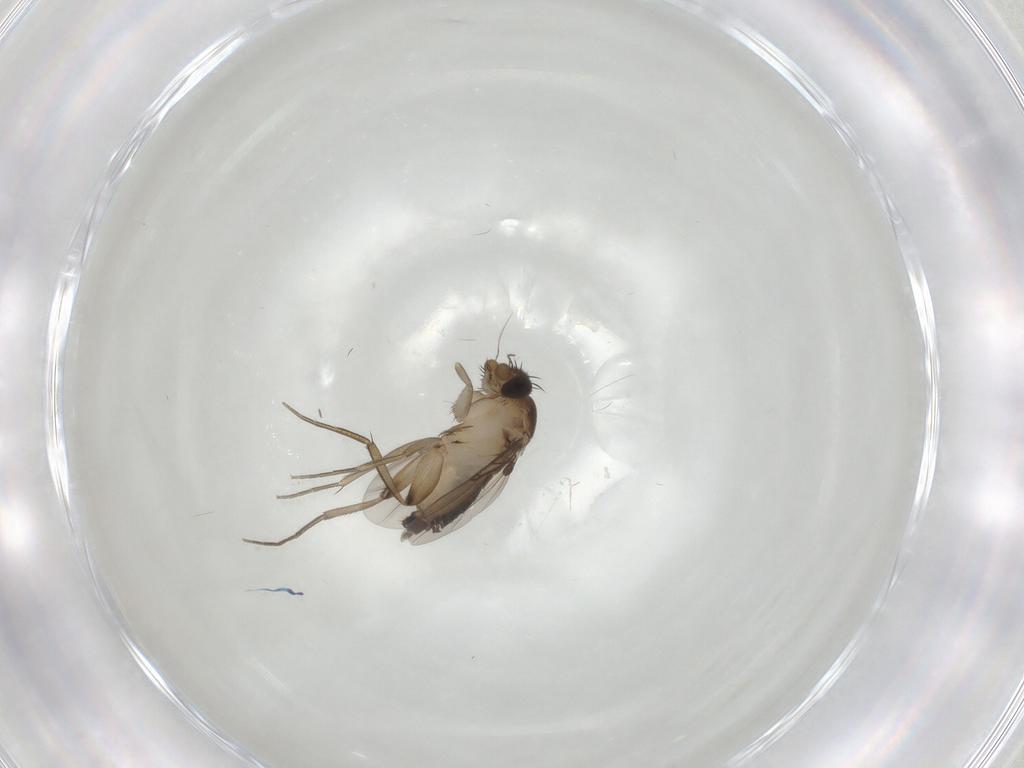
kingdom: Animalia
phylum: Arthropoda
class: Insecta
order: Diptera
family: Phoridae
